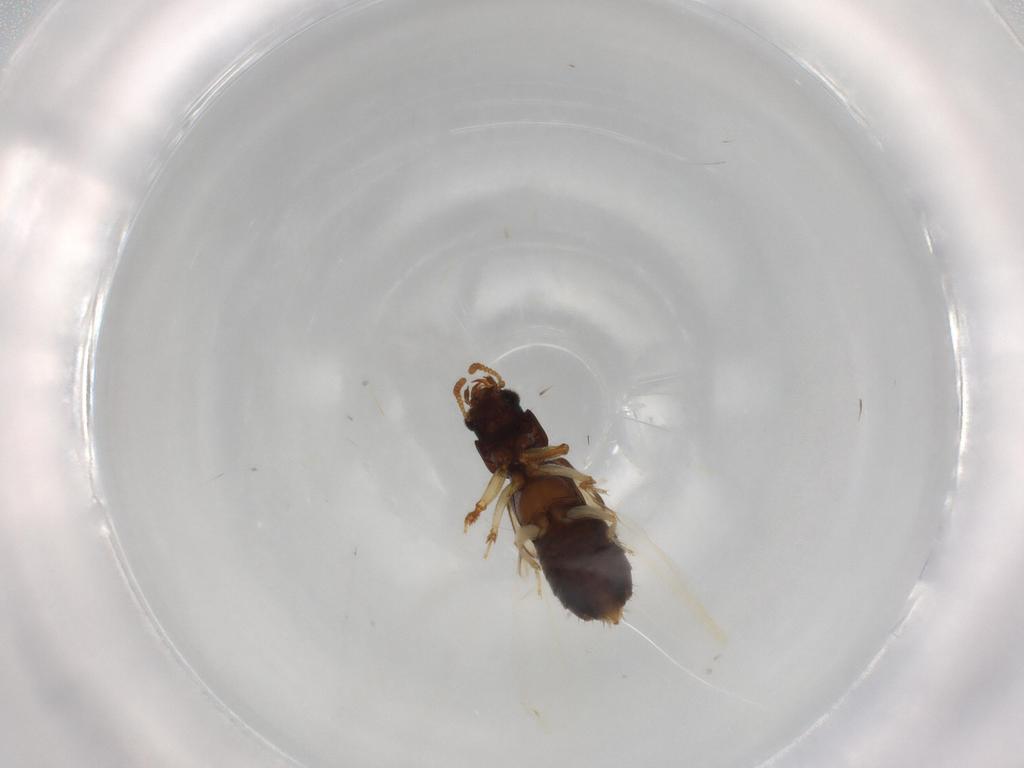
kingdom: Animalia
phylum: Arthropoda
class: Insecta
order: Coleoptera
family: Staphylinidae
